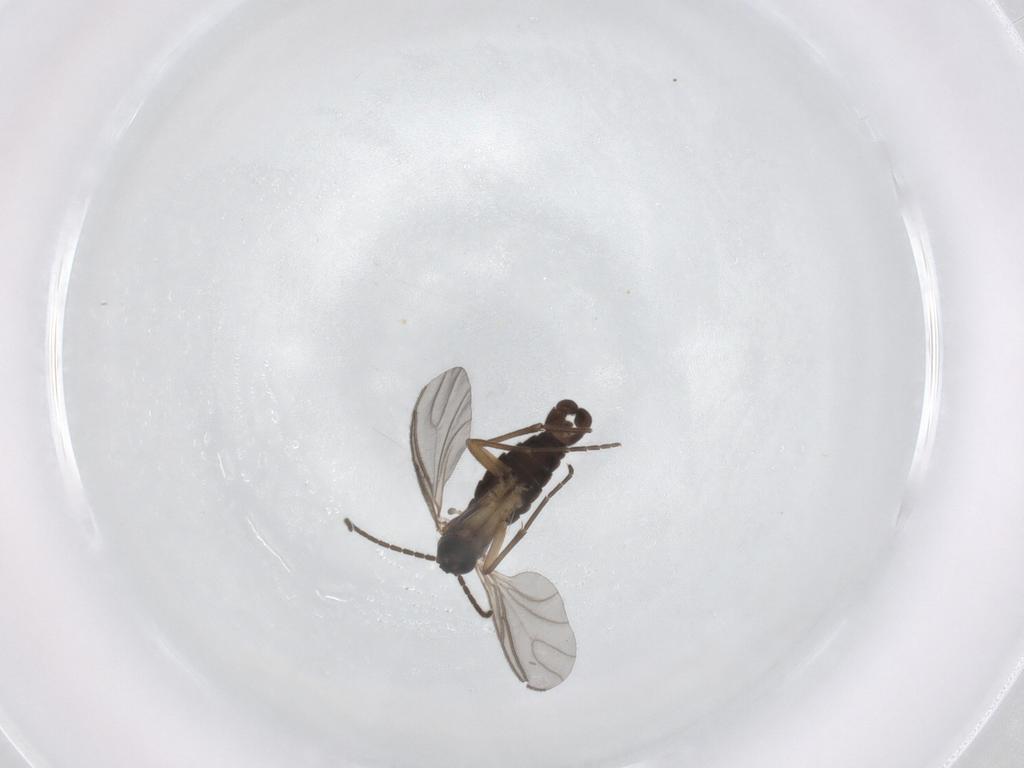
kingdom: Animalia
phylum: Arthropoda
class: Insecta
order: Diptera
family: Sciaridae
